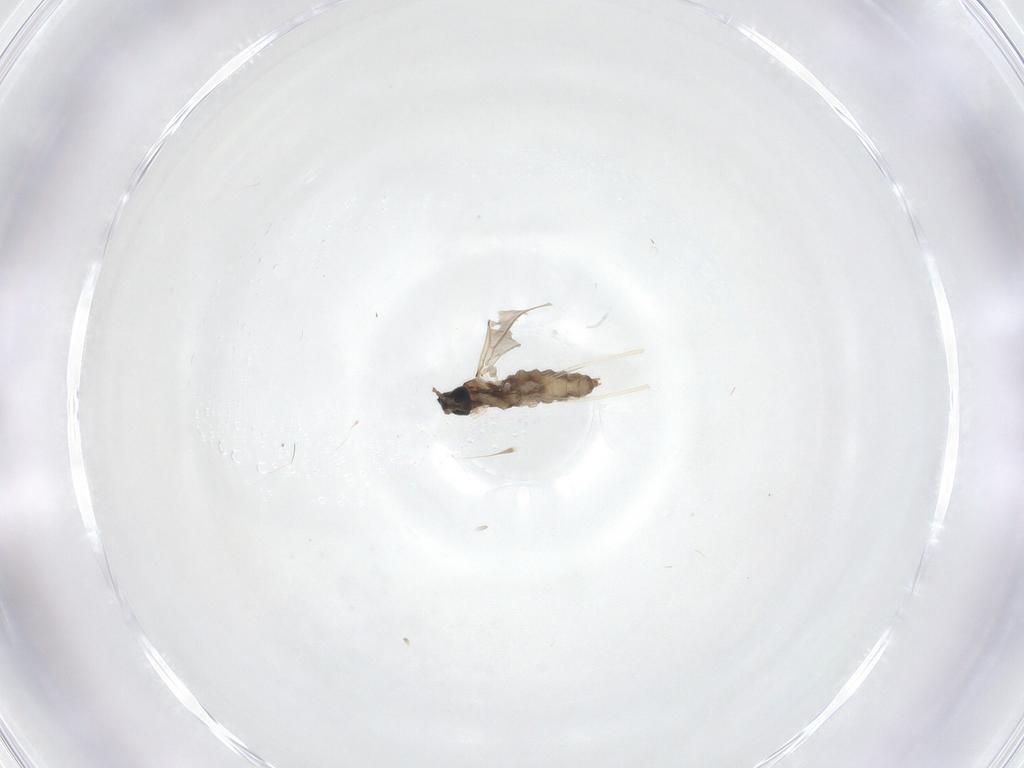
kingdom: Animalia
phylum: Arthropoda
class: Insecta
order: Diptera
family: Cecidomyiidae
